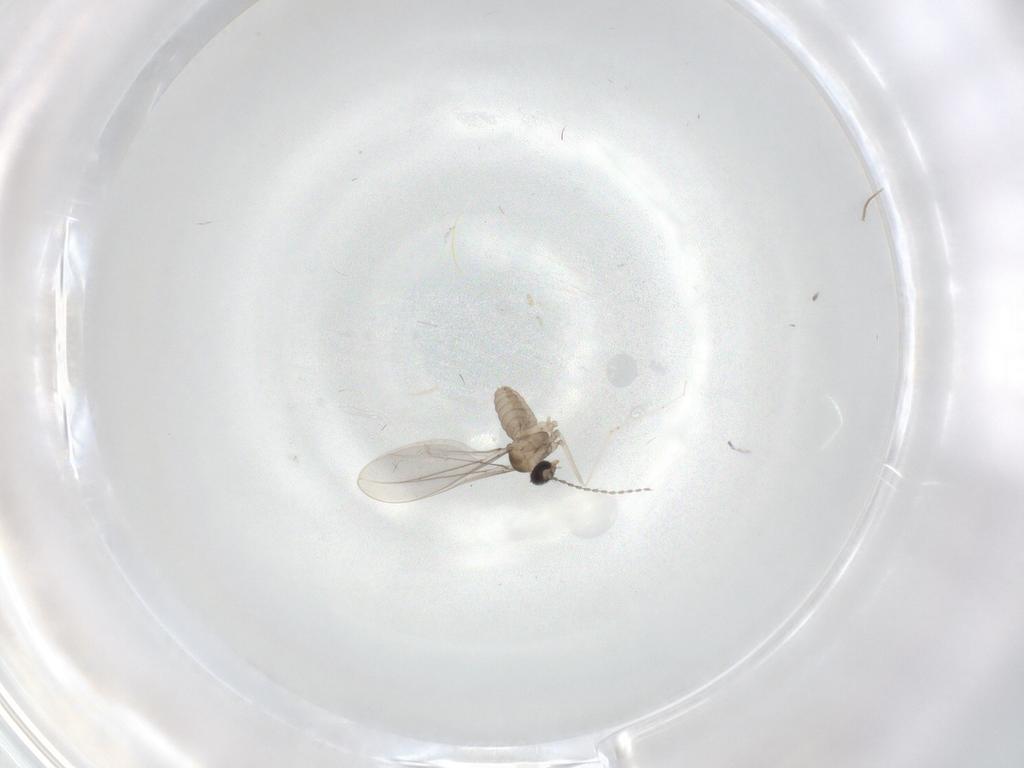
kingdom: Animalia
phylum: Arthropoda
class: Insecta
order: Diptera
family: Cecidomyiidae
